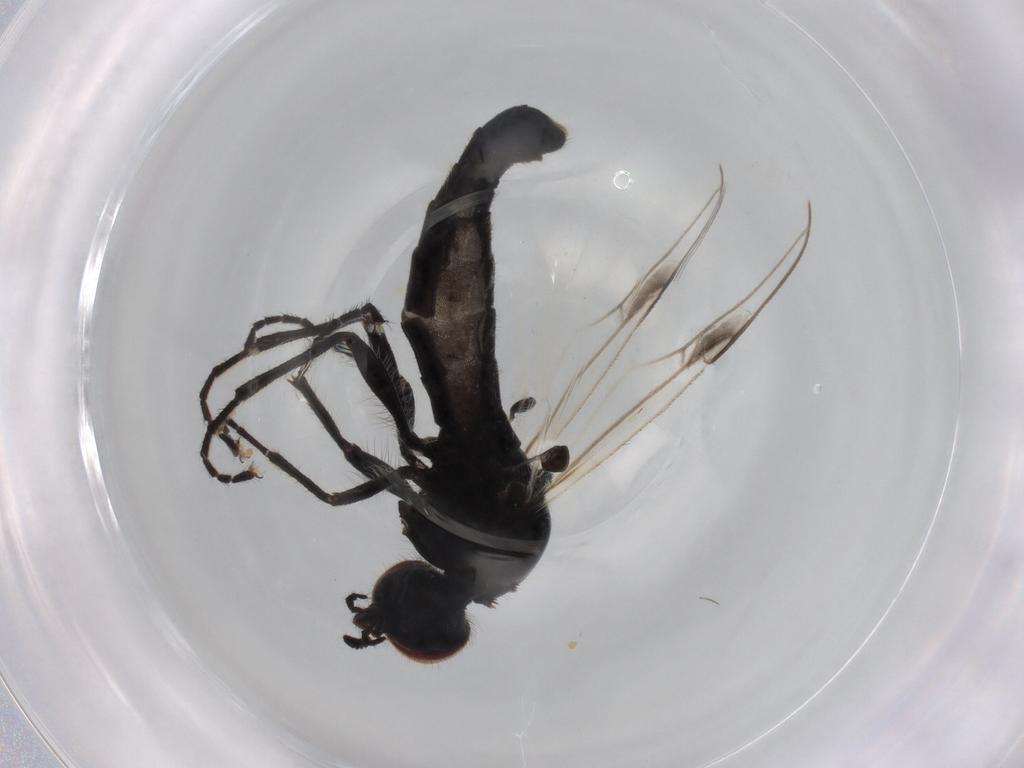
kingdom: Animalia
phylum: Arthropoda
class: Insecta
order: Diptera
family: Bibionidae
